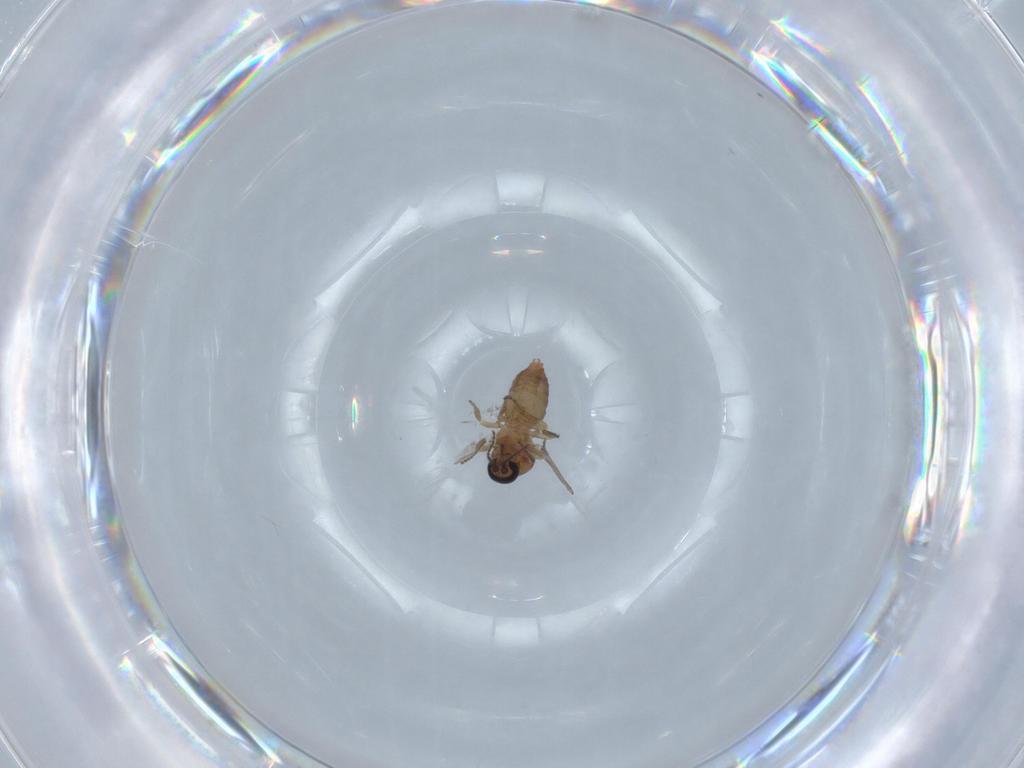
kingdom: Animalia
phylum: Arthropoda
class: Insecta
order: Diptera
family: Ceratopogonidae
